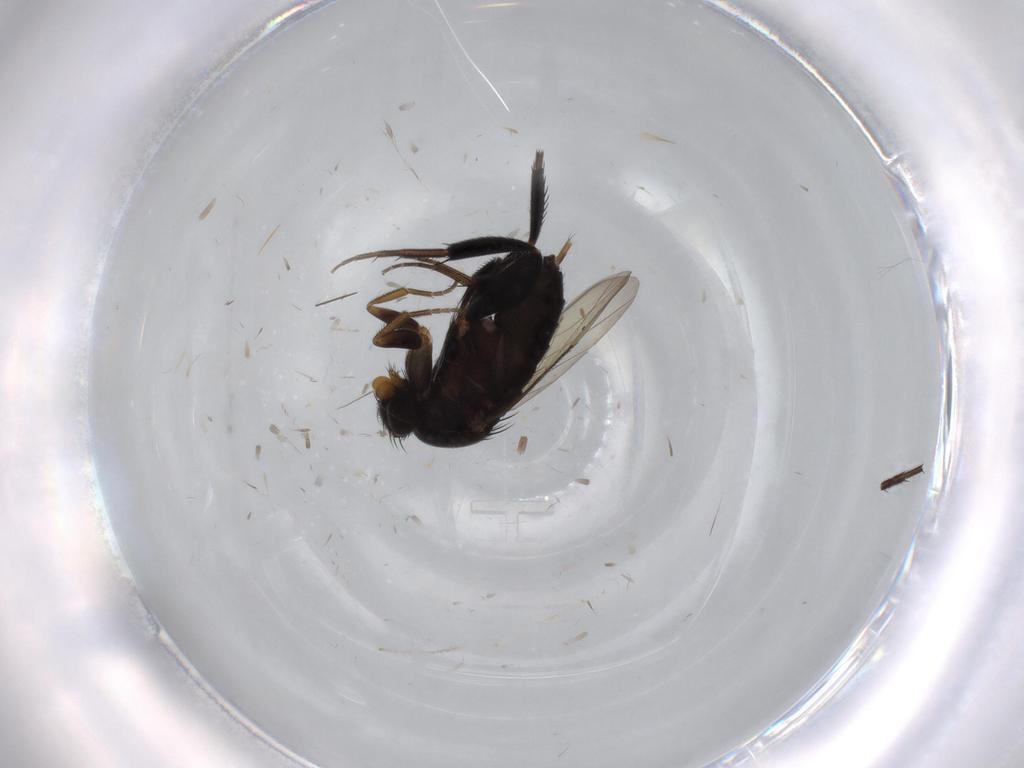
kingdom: Animalia
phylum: Arthropoda
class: Insecta
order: Diptera
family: Phoridae
